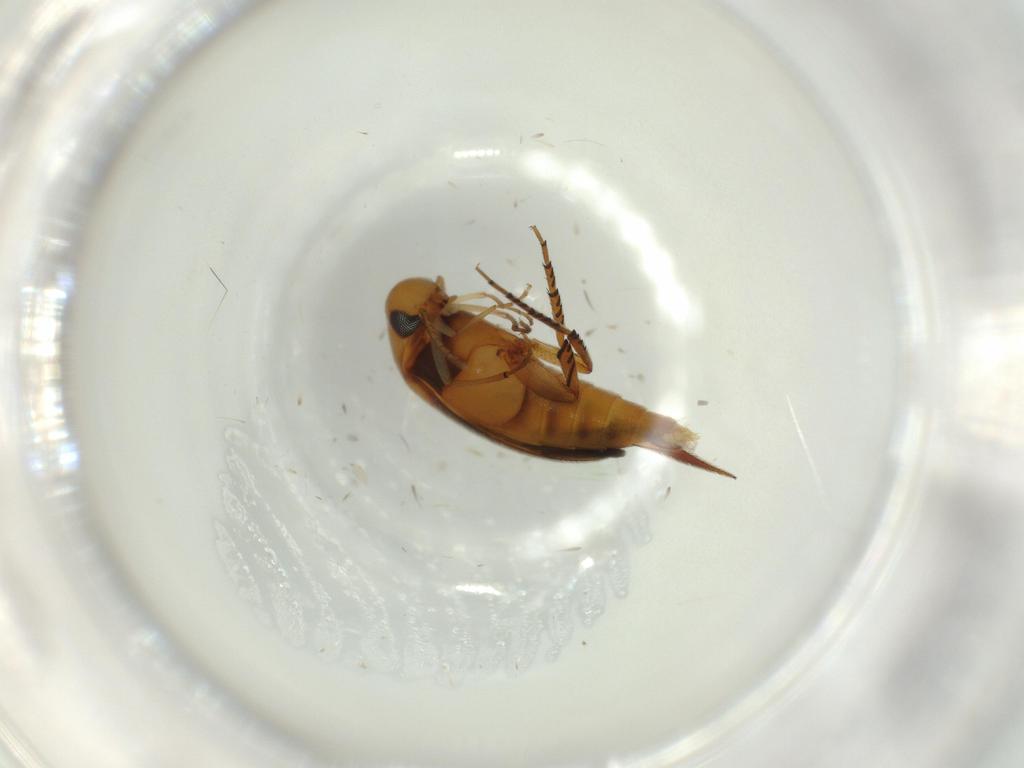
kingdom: Animalia
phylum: Arthropoda
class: Insecta
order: Coleoptera
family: Mordellidae
